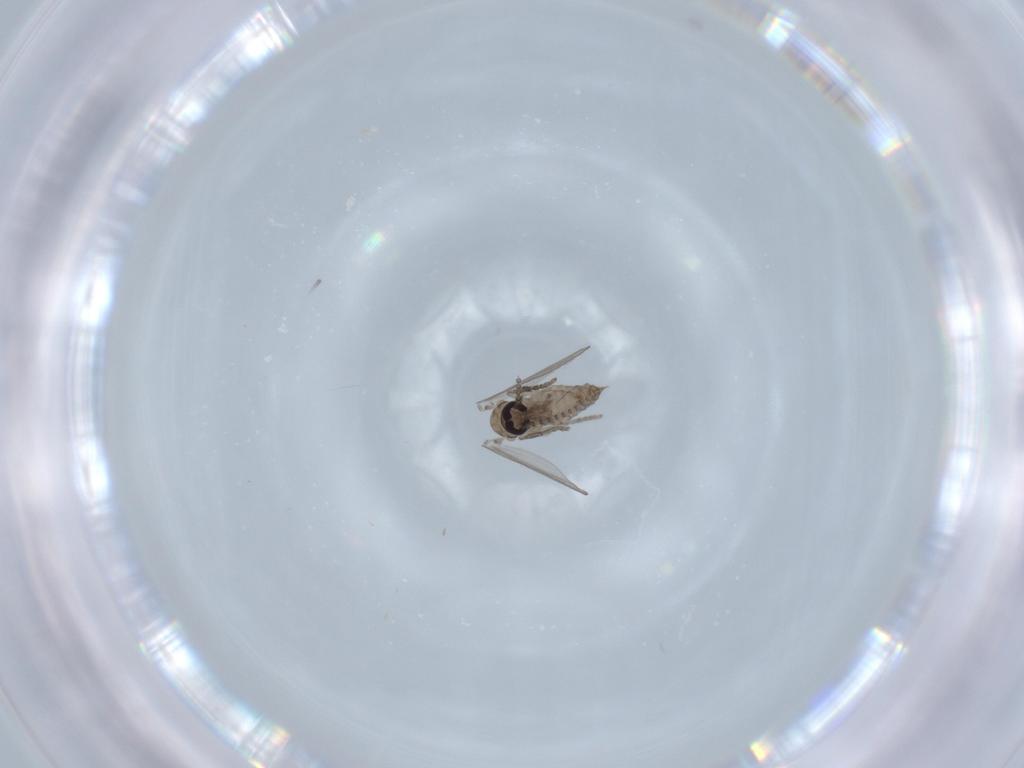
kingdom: Animalia
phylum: Arthropoda
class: Insecta
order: Diptera
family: Psychodidae
